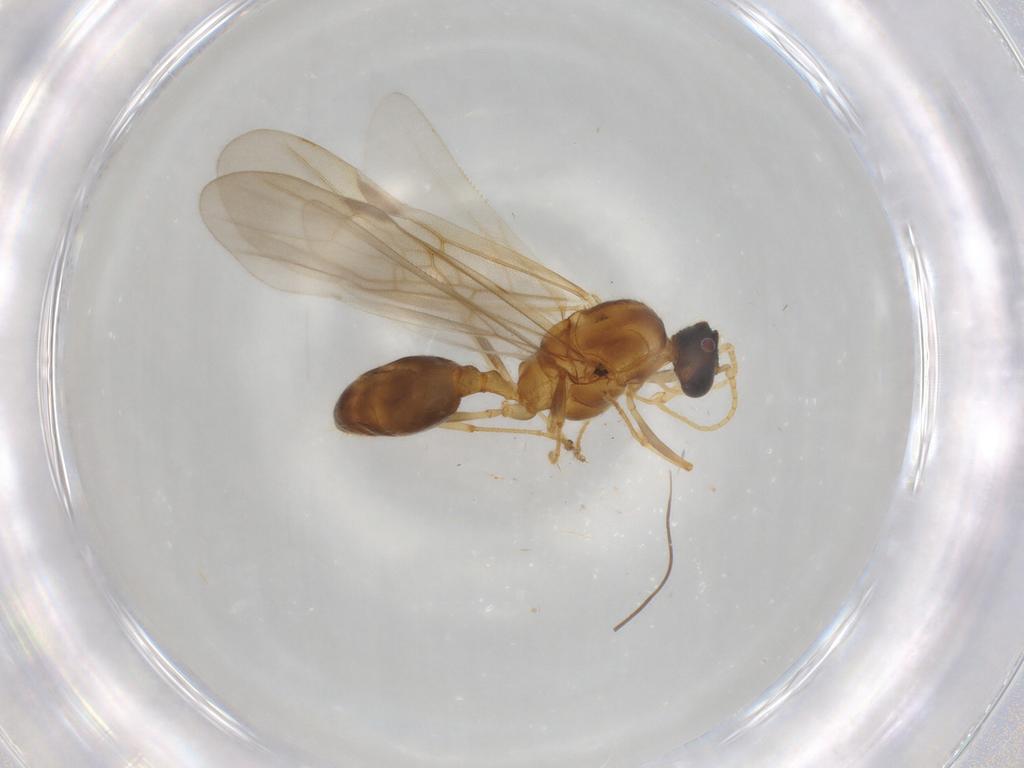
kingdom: Animalia
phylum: Arthropoda
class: Insecta
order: Hymenoptera
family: Formicidae
